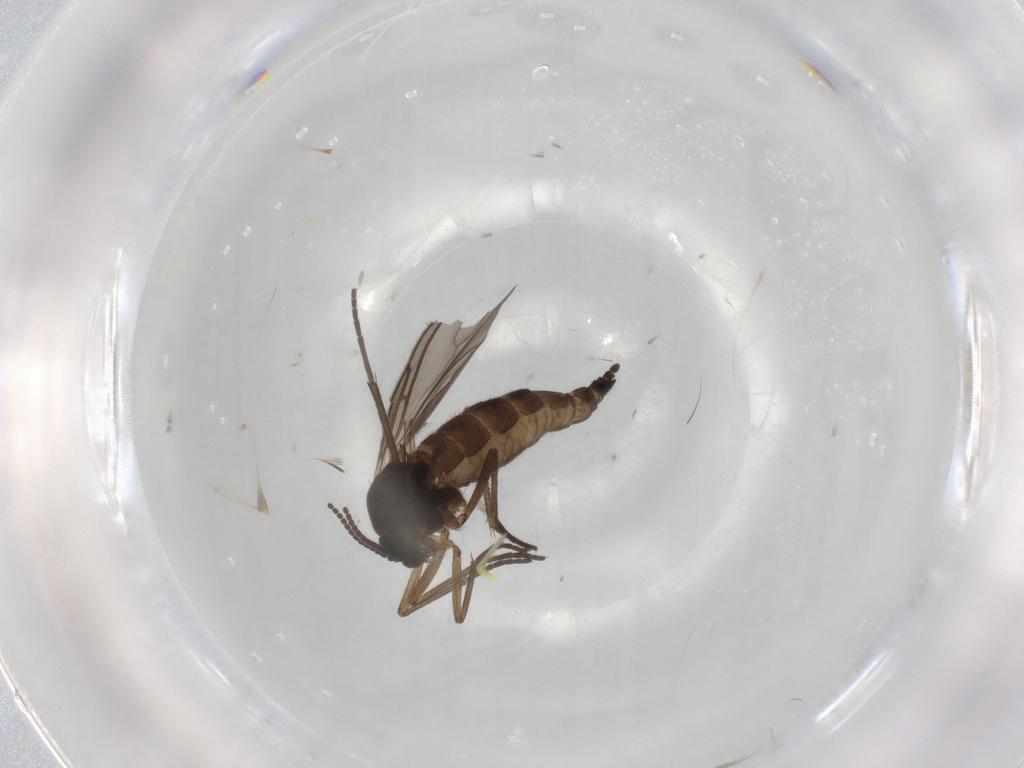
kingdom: Animalia
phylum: Arthropoda
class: Insecta
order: Diptera
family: Sciaridae
